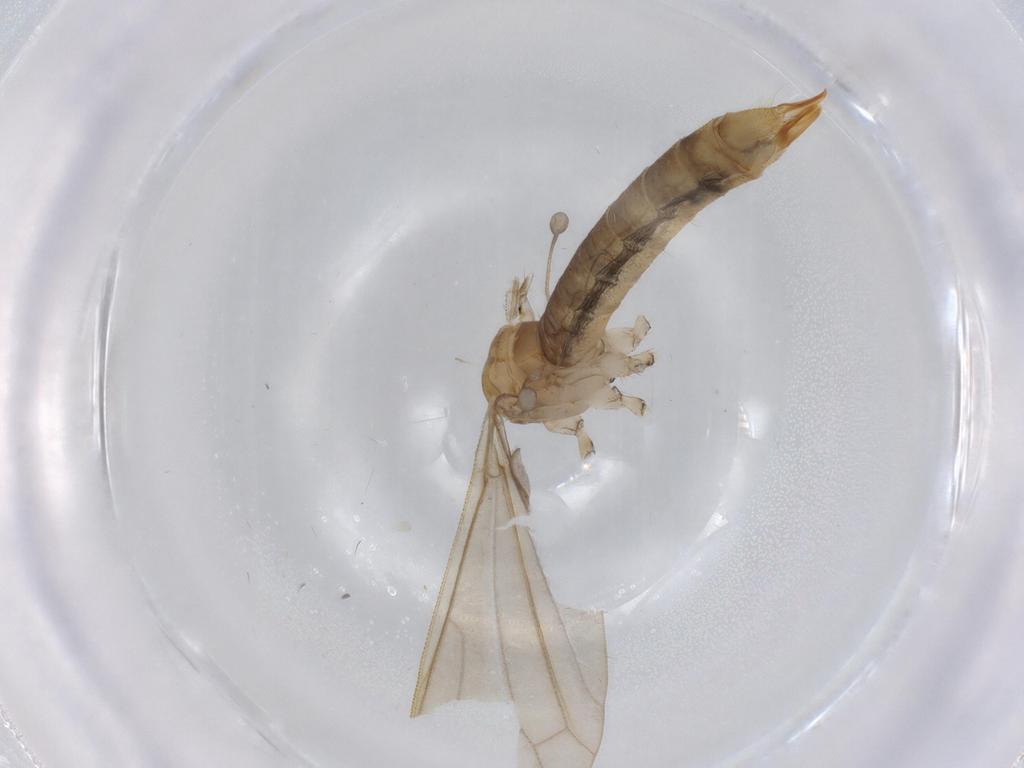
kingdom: Animalia
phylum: Arthropoda
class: Insecta
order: Diptera
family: Limoniidae
